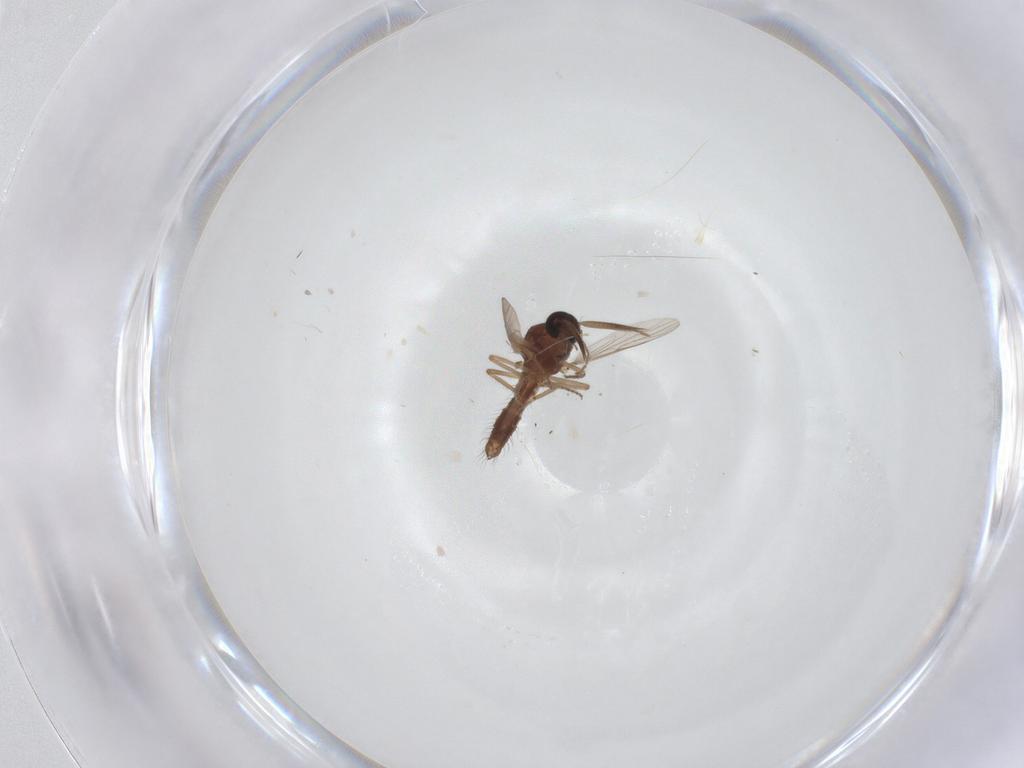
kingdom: Animalia
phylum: Arthropoda
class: Insecta
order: Diptera
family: Ceratopogonidae
